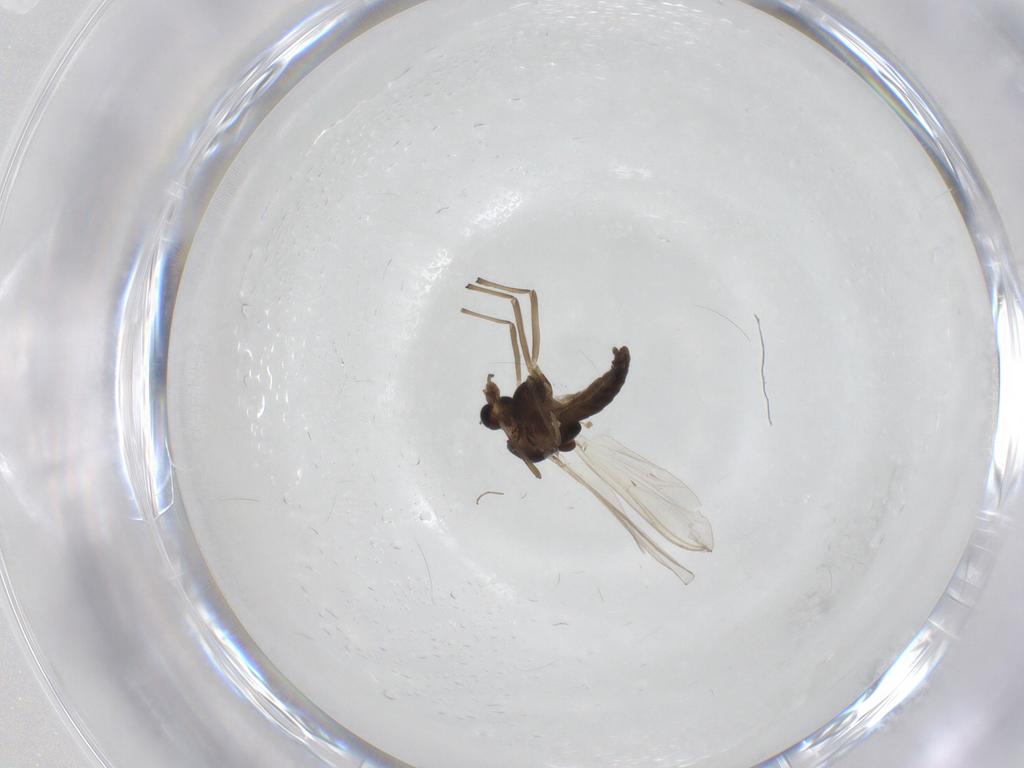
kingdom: Animalia
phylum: Arthropoda
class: Insecta
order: Diptera
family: Chironomidae
